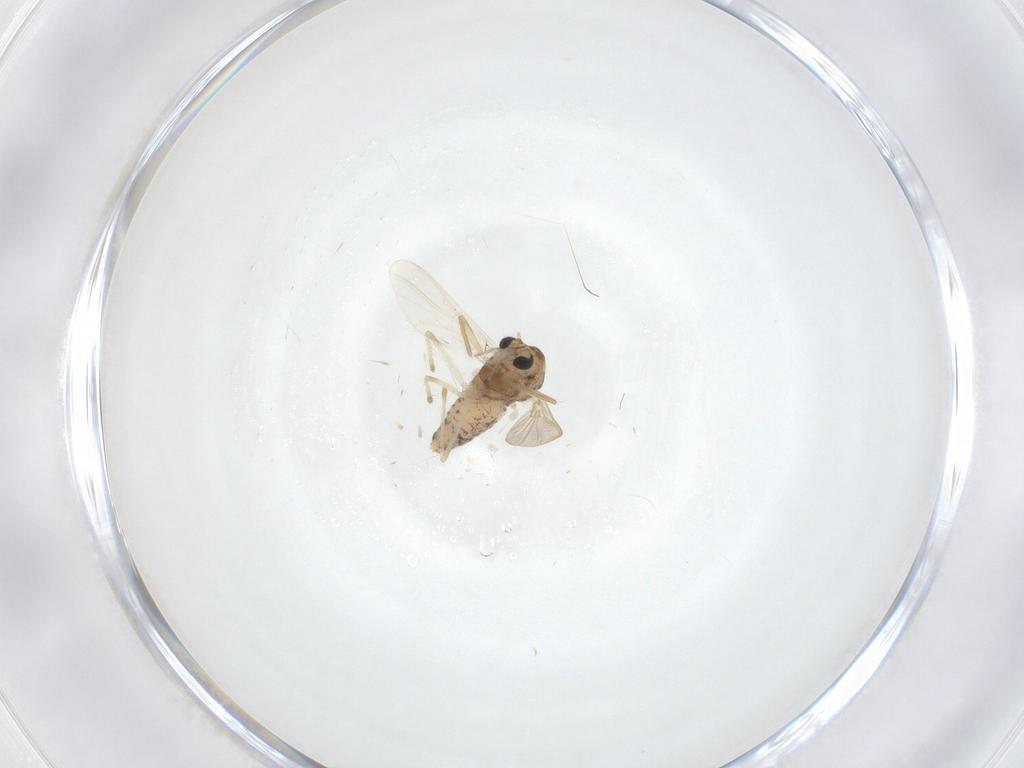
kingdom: Animalia
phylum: Arthropoda
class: Insecta
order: Diptera
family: Chironomidae
